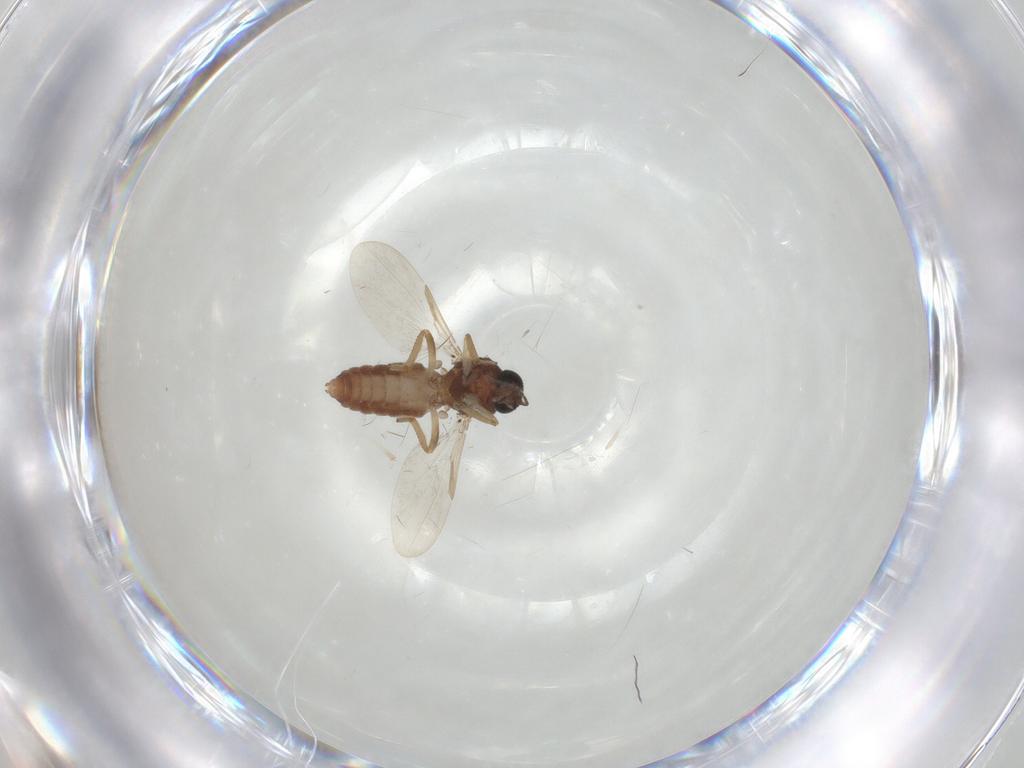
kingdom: Animalia
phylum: Arthropoda
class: Insecta
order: Diptera
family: Ceratopogonidae
